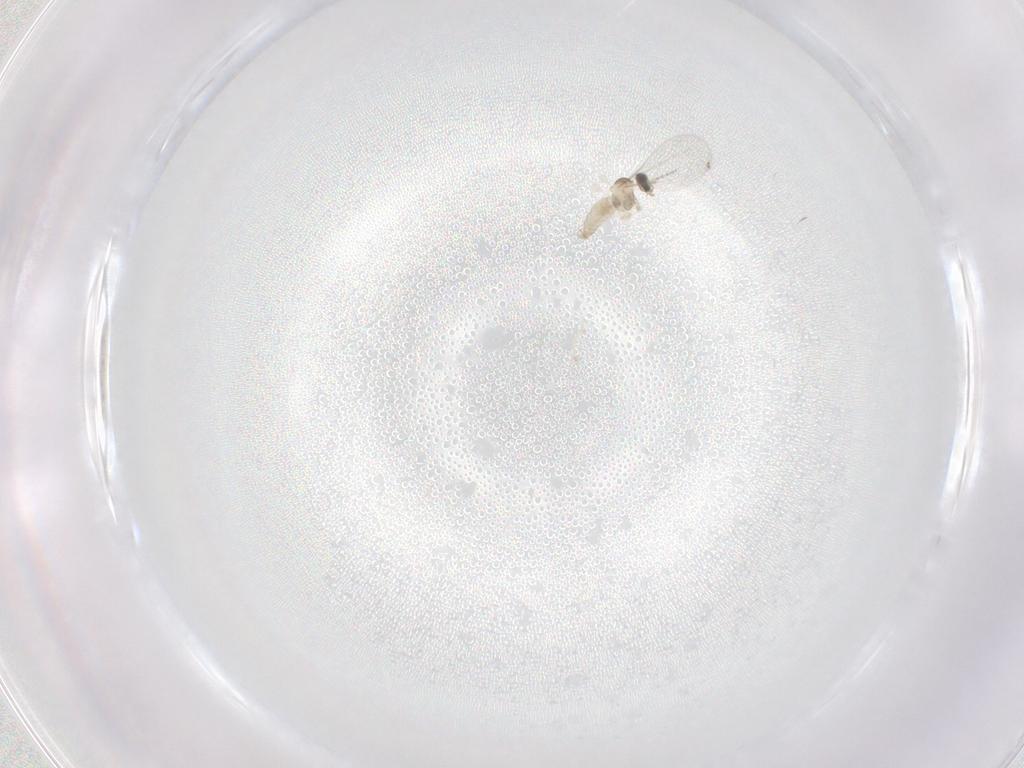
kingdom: Animalia
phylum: Arthropoda
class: Insecta
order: Diptera
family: Cecidomyiidae
